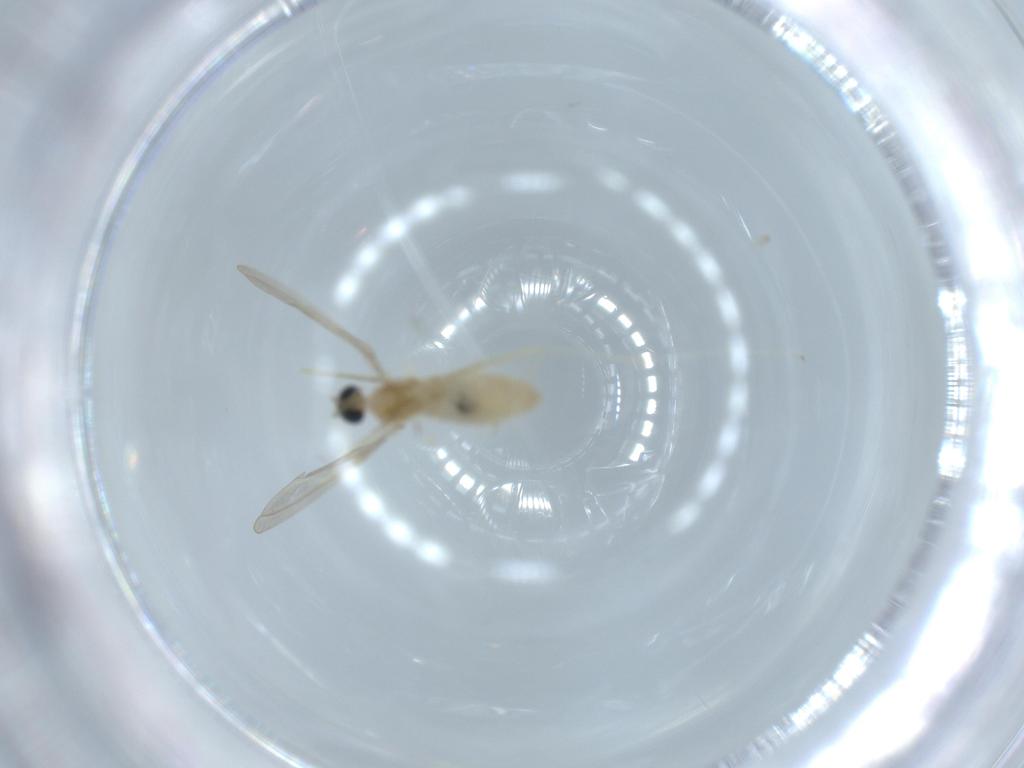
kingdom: Animalia
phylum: Arthropoda
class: Insecta
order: Diptera
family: Cecidomyiidae
